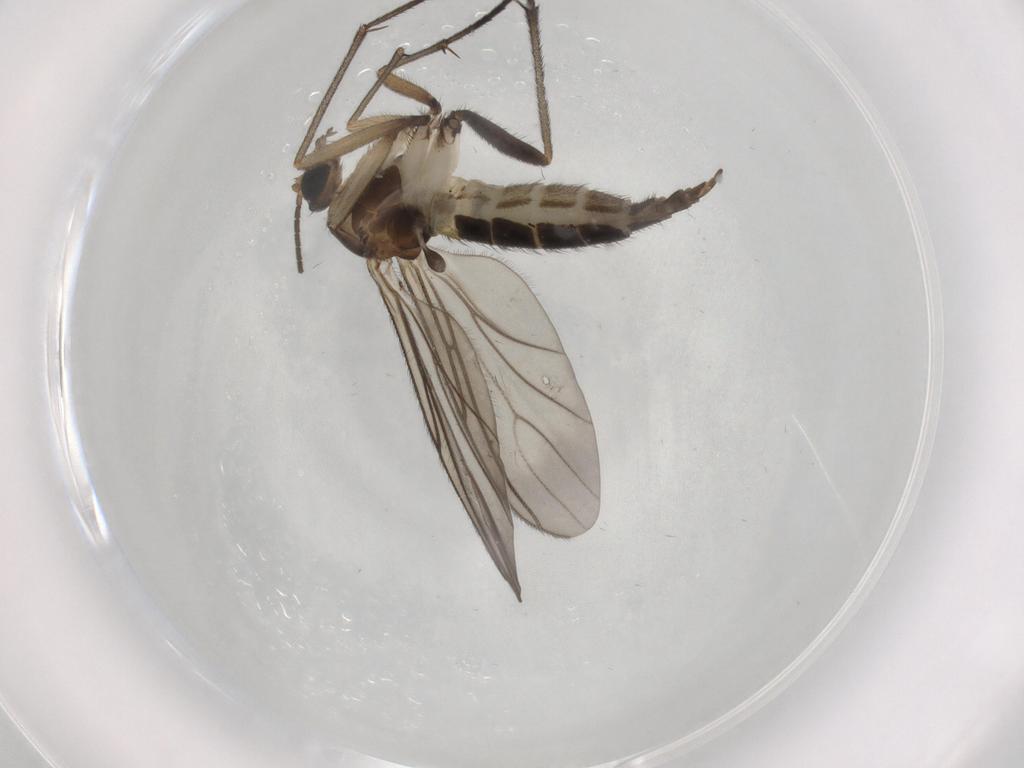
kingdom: Animalia
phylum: Arthropoda
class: Insecta
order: Diptera
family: Sciaridae
